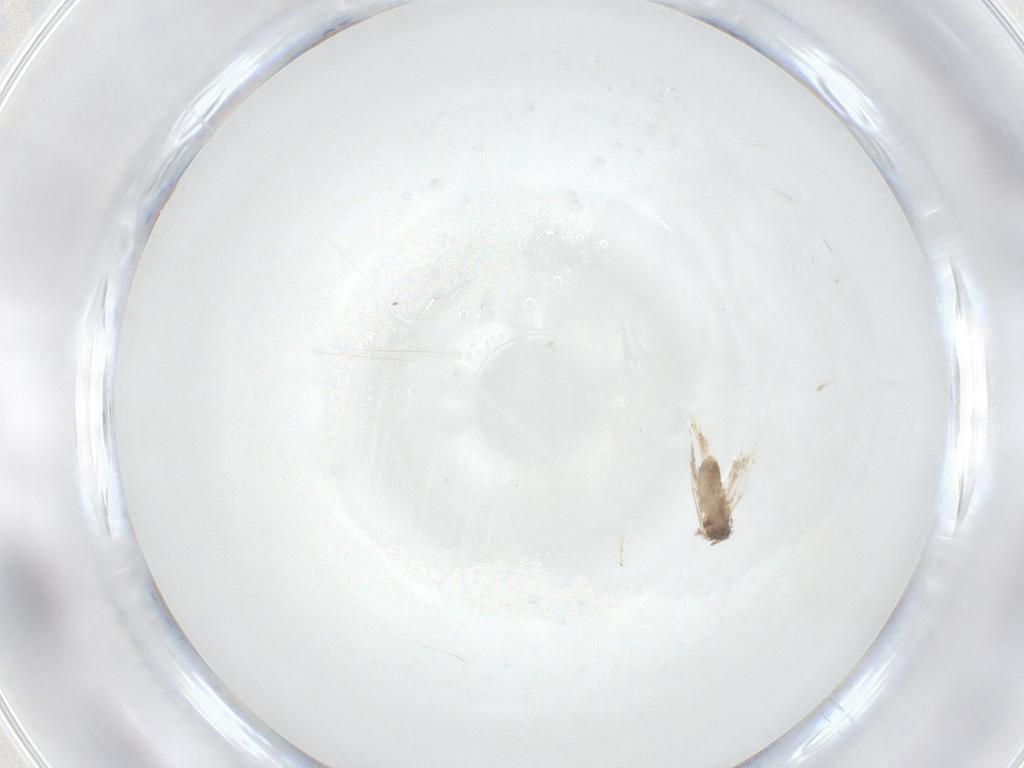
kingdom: Animalia
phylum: Arthropoda
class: Insecta
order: Lepidoptera
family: Nepticulidae
